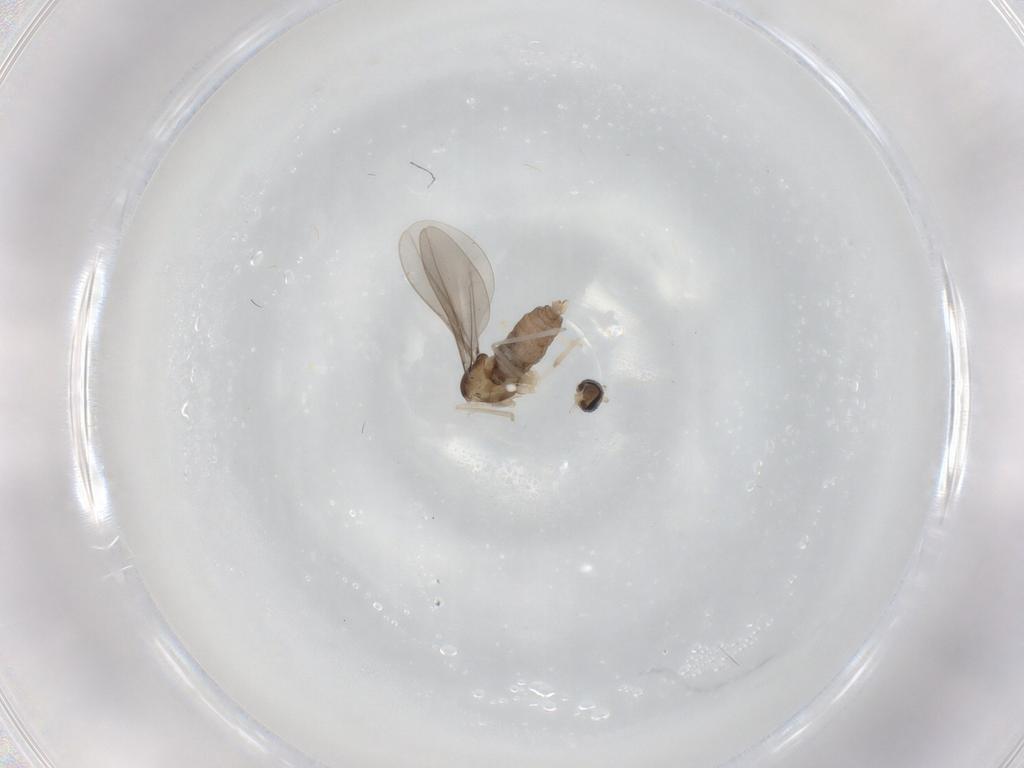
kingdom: Animalia
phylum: Arthropoda
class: Insecta
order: Diptera
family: Cecidomyiidae
